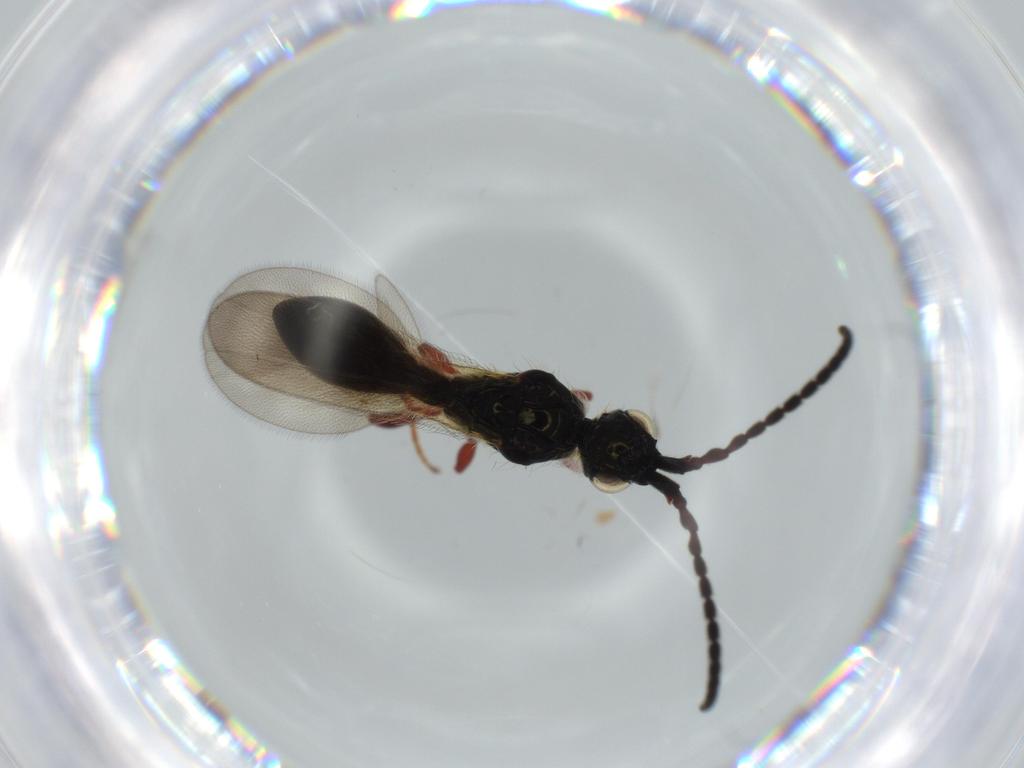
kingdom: Animalia
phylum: Arthropoda
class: Insecta
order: Hymenoptera
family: Diapriidae
